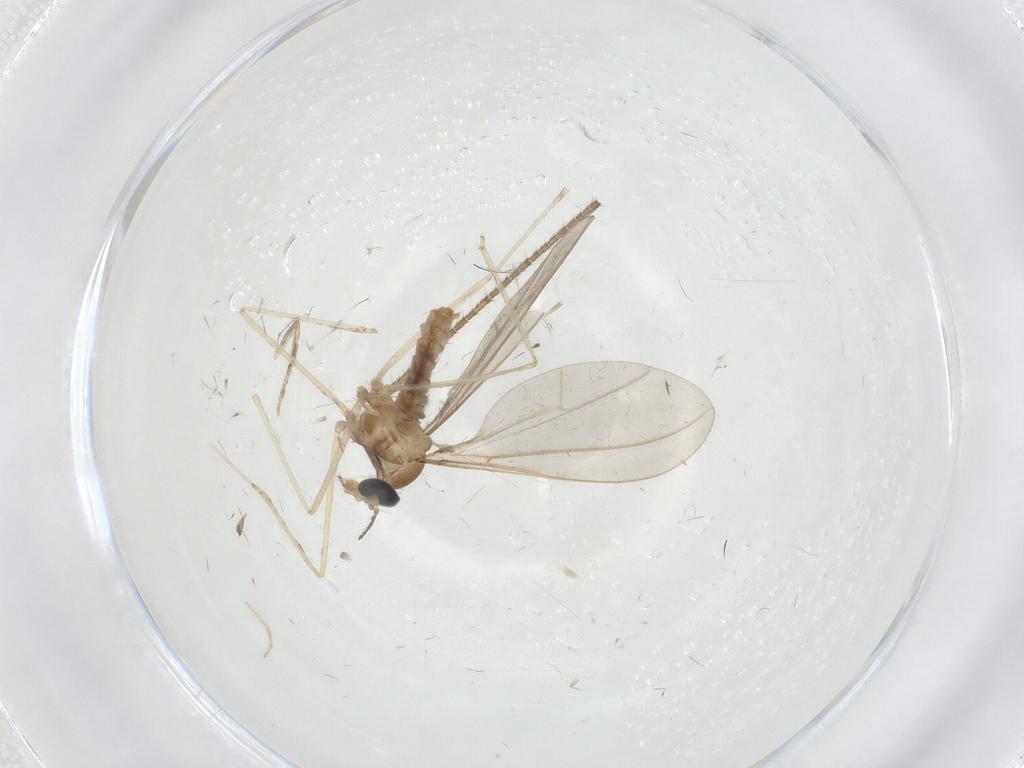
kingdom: Animalia
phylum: Arthropoda
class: Insecta
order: Diptera
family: Cecidomyiidae
